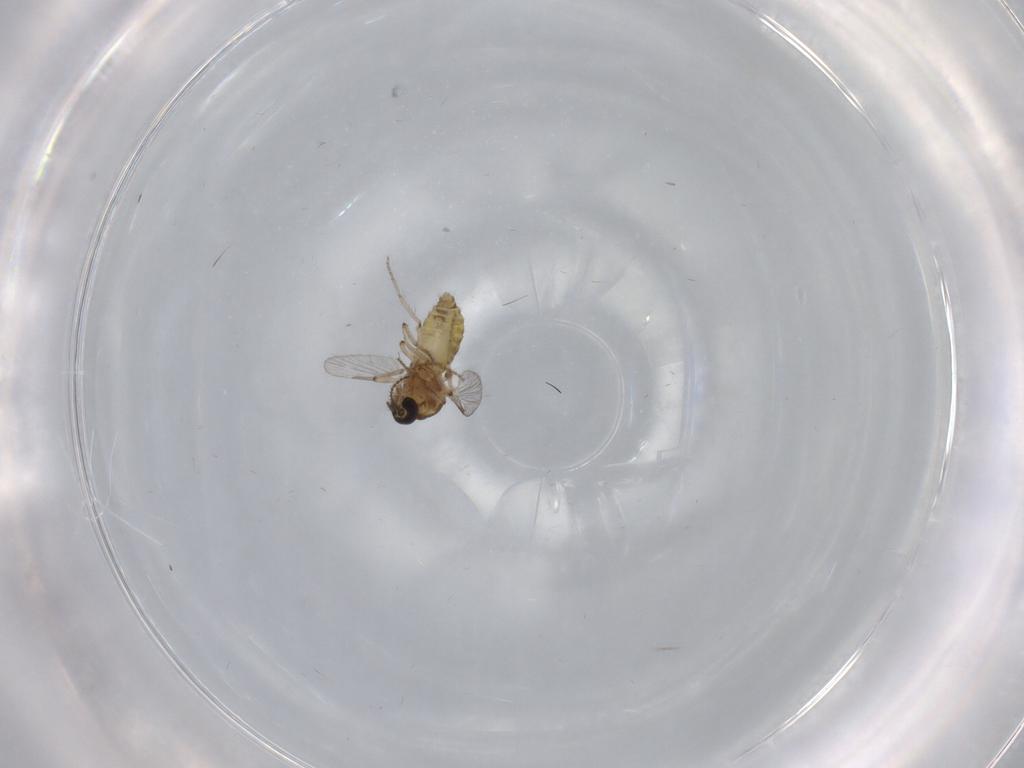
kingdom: Animalia
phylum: Arthropoda
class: Insecta
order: Diptera
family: Ceratopogonidae
